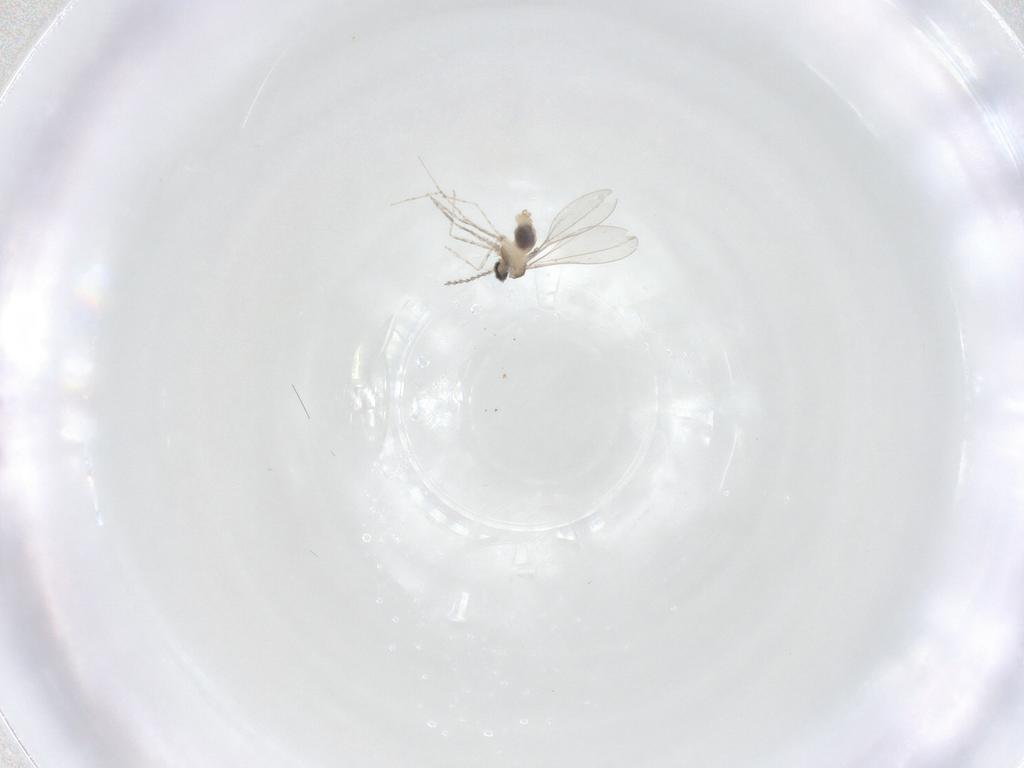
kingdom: Animalia
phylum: Arthropoda
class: Insecta
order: Diptera
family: Cecidomyiidae
